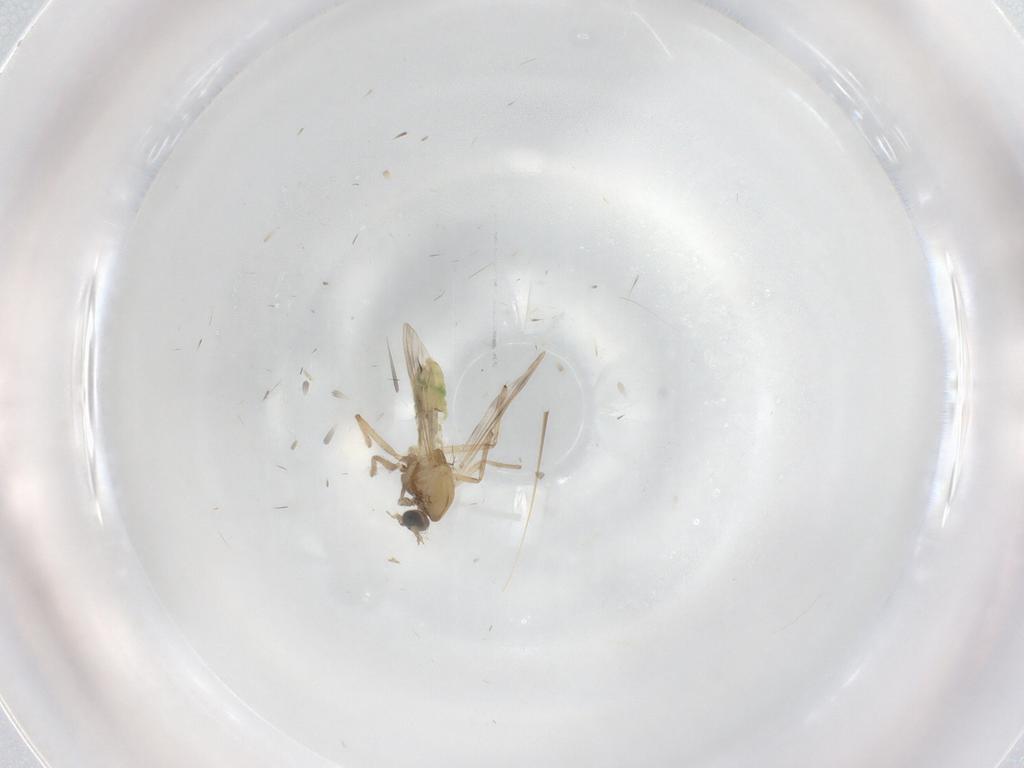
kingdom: Animalia
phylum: Arthropoda
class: Insecta
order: Diptera
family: Chironomidae
